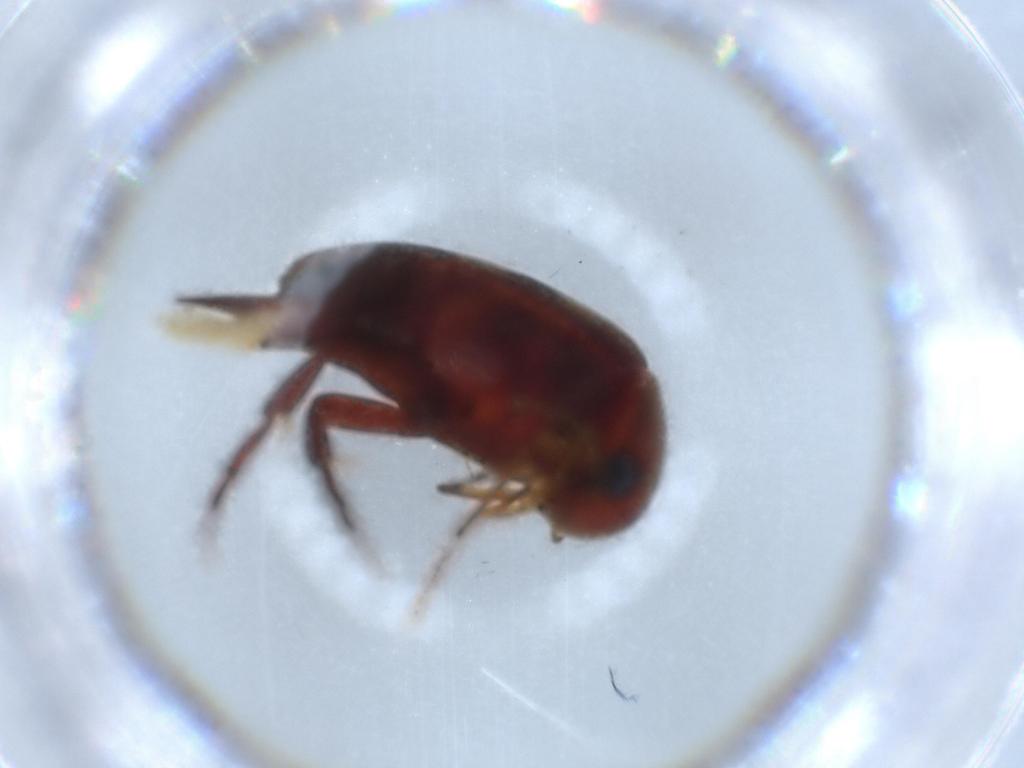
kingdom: Animalia
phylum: Arthropoda
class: Insecta
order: Coleoptera
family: Mordellidae
